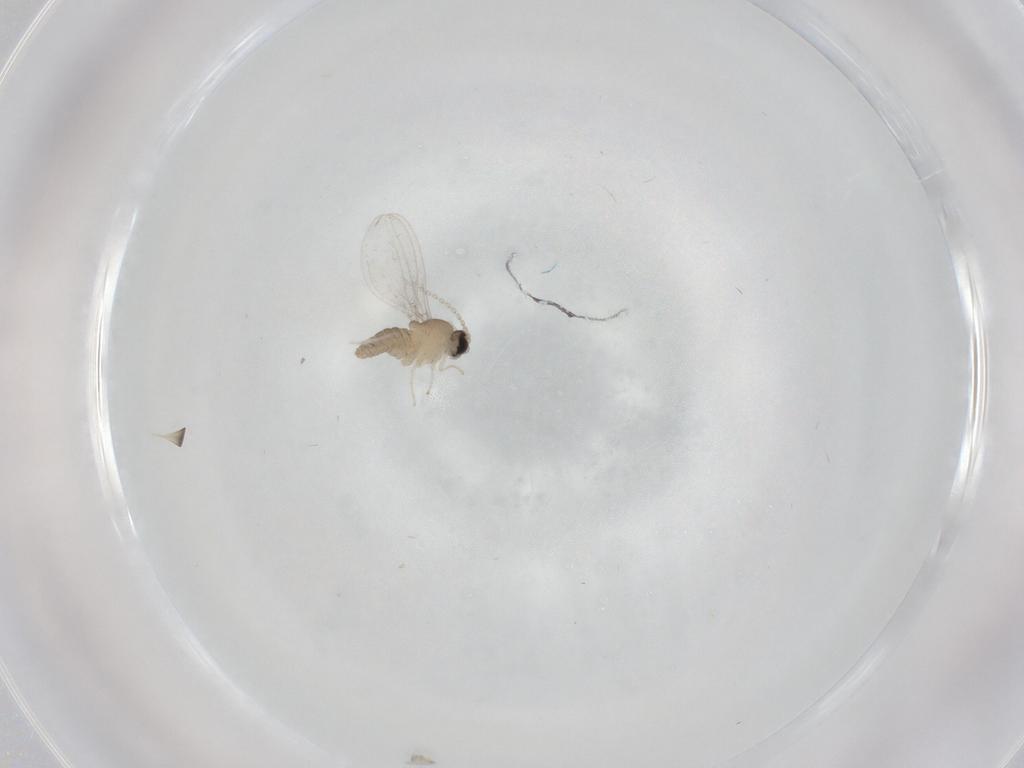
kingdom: Animalia
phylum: Arthropoda
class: Insecta
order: Diptera
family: Cecidomyiidae
